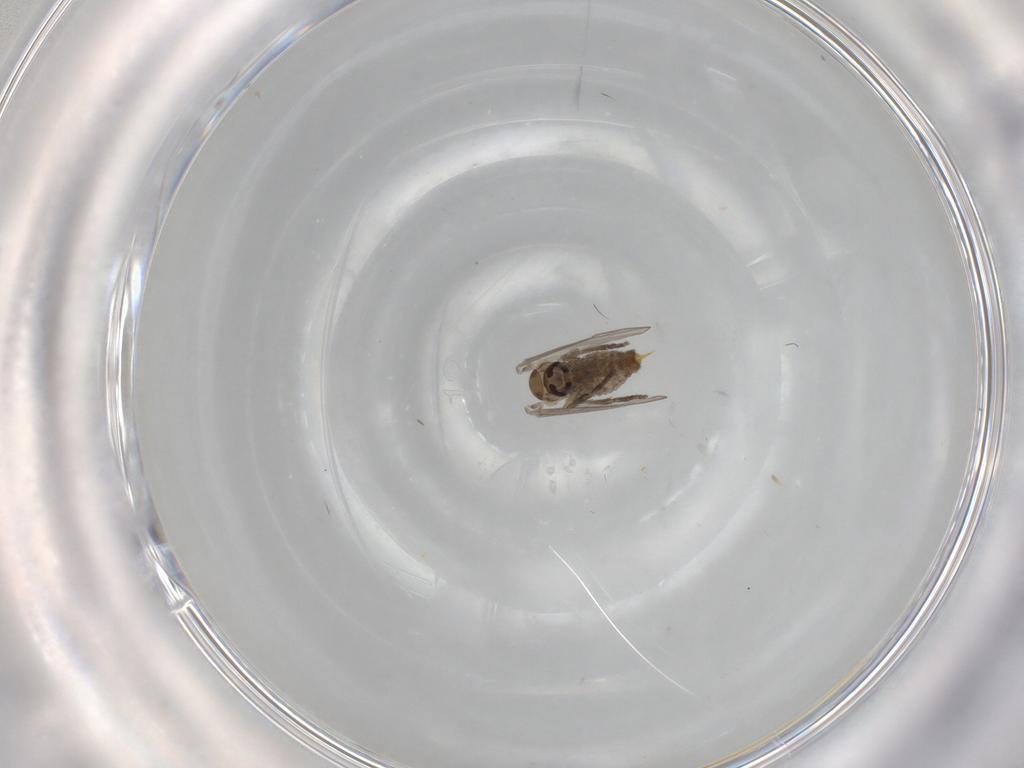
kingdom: Animalia
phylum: Arthropoda
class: Insecta
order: Diptera
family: Psychodidae
